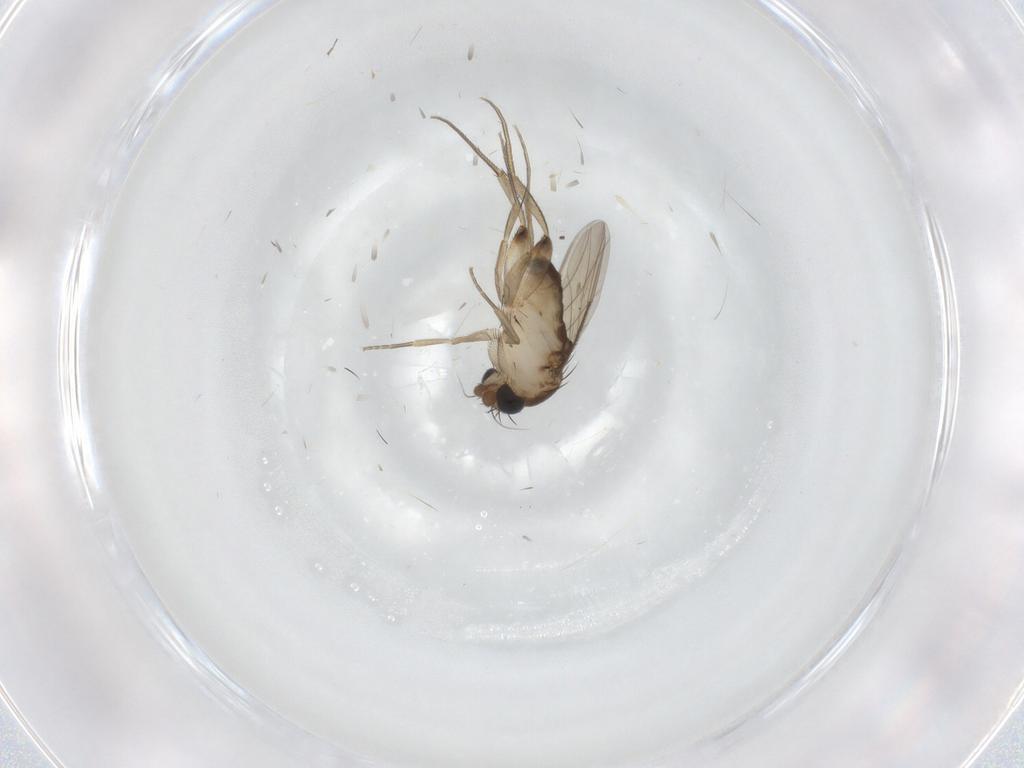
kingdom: Animalia
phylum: Arthropoda
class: Insecta
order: Diptera
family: Phoridae
